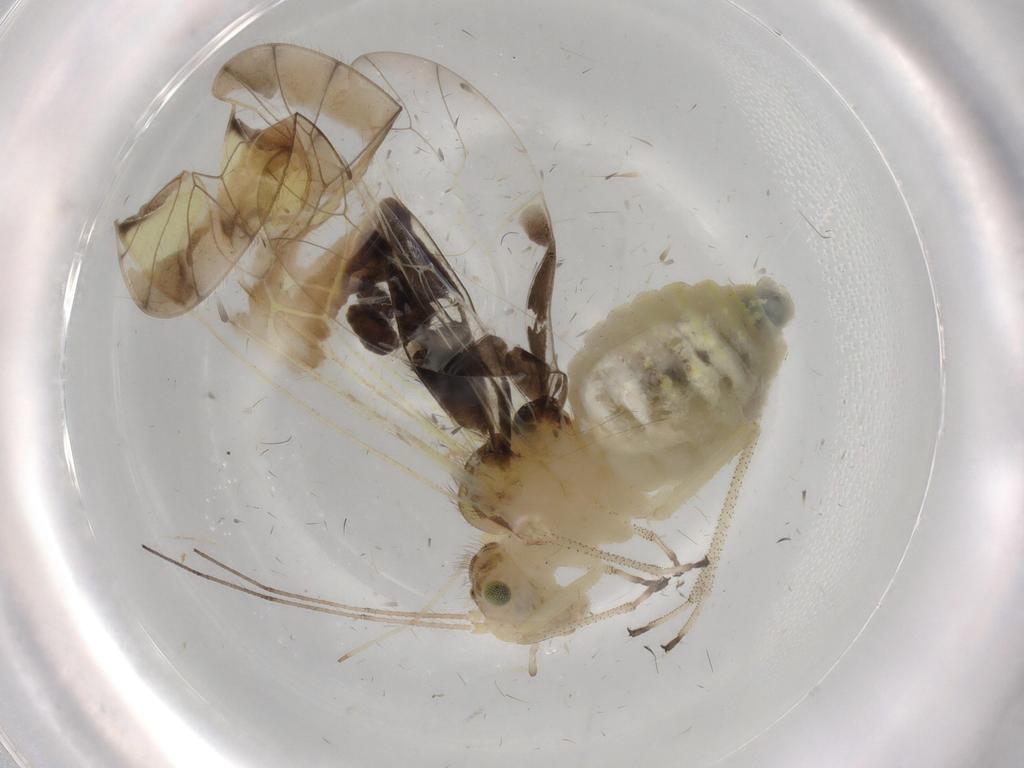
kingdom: Animalia
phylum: Arthropoda
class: Insecta
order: Psocodea
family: Amphipsocidae
